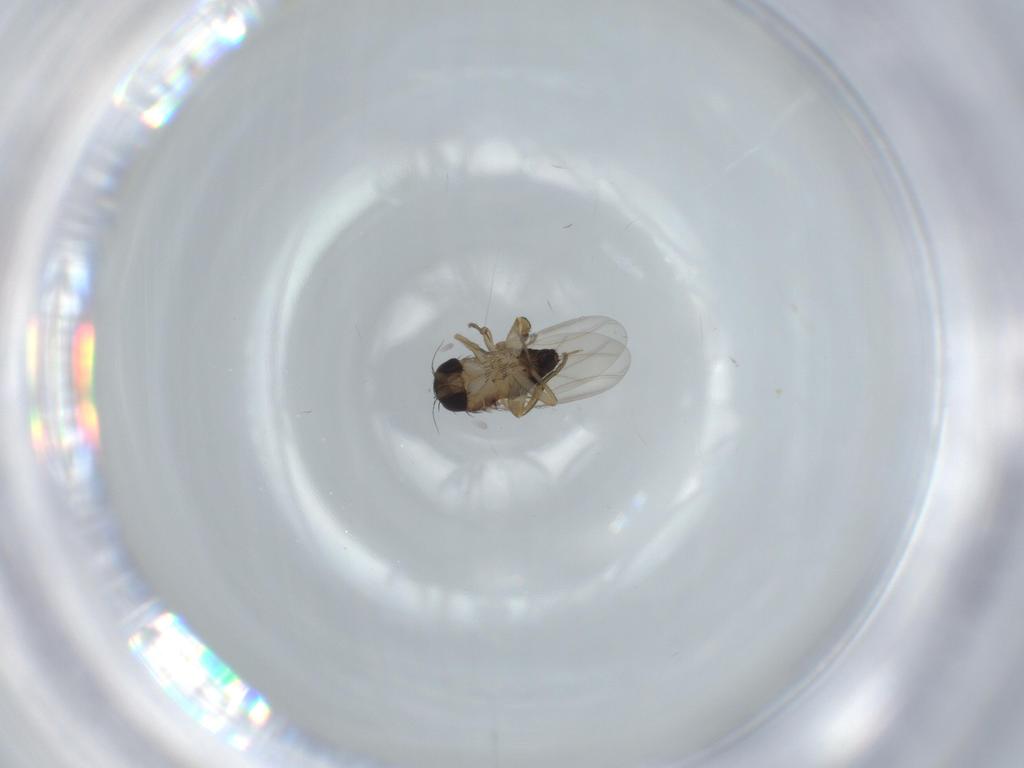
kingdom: Animalia
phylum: Arthropoda
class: Insecta
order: Diptera
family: Phoridae
